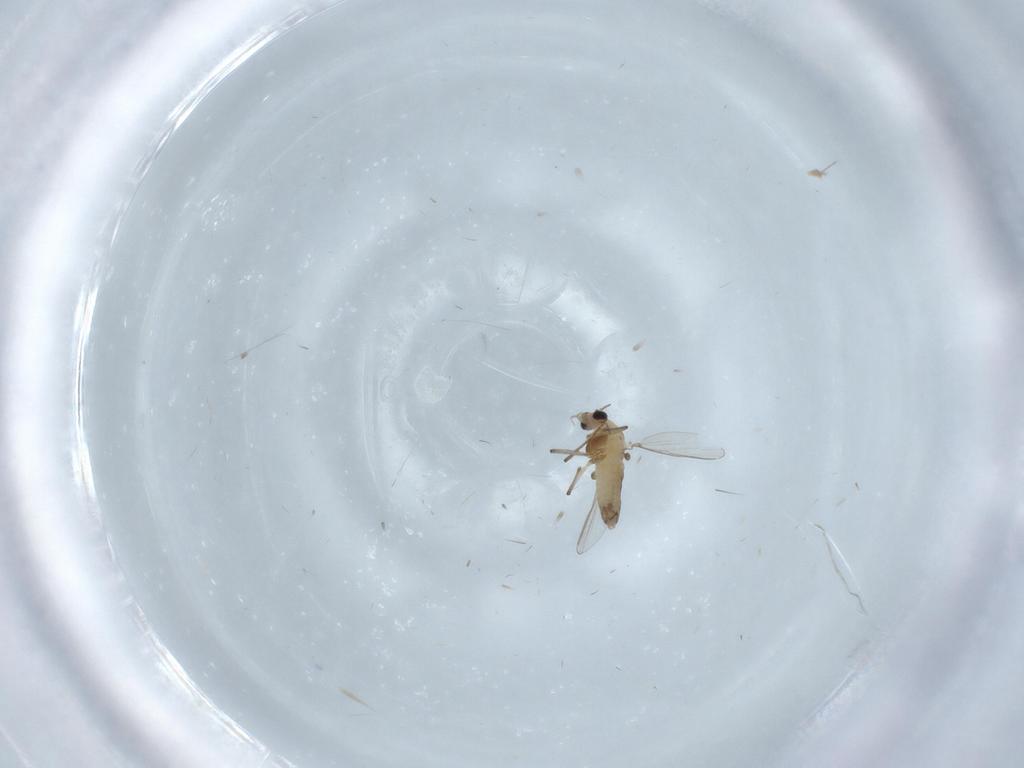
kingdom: Animalia
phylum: Arthropoda
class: Insecta
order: Diptera
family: Chironomidae
